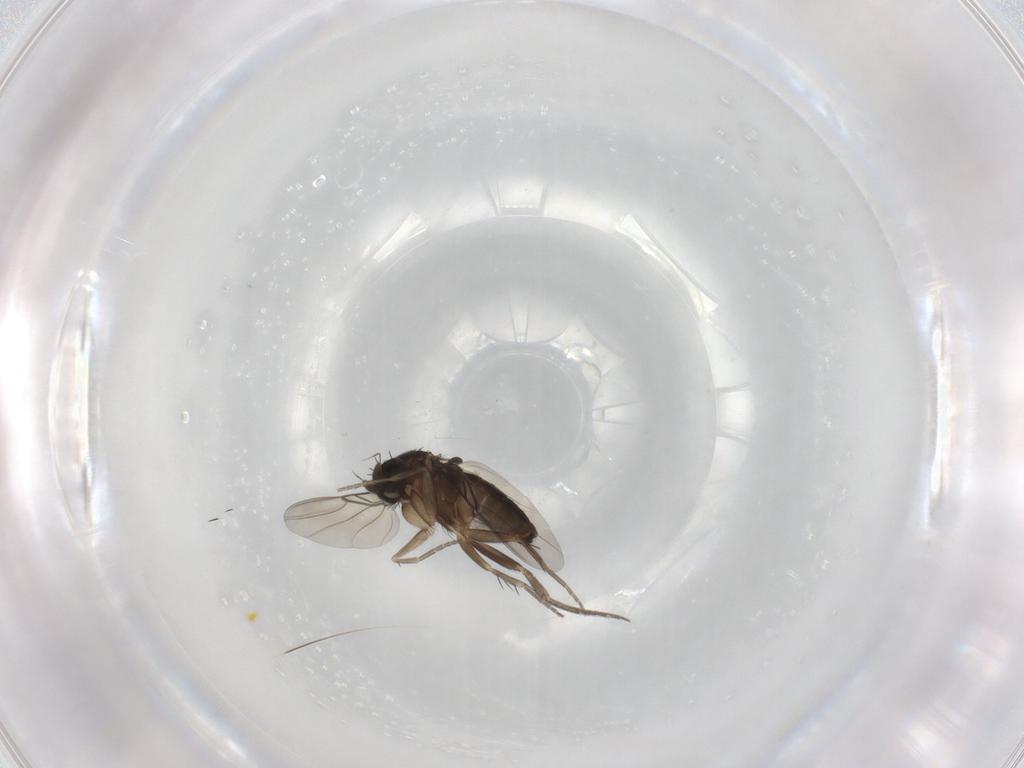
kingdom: Animalia
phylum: Arthropoda
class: Insecta
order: Diptera
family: Phoridae
